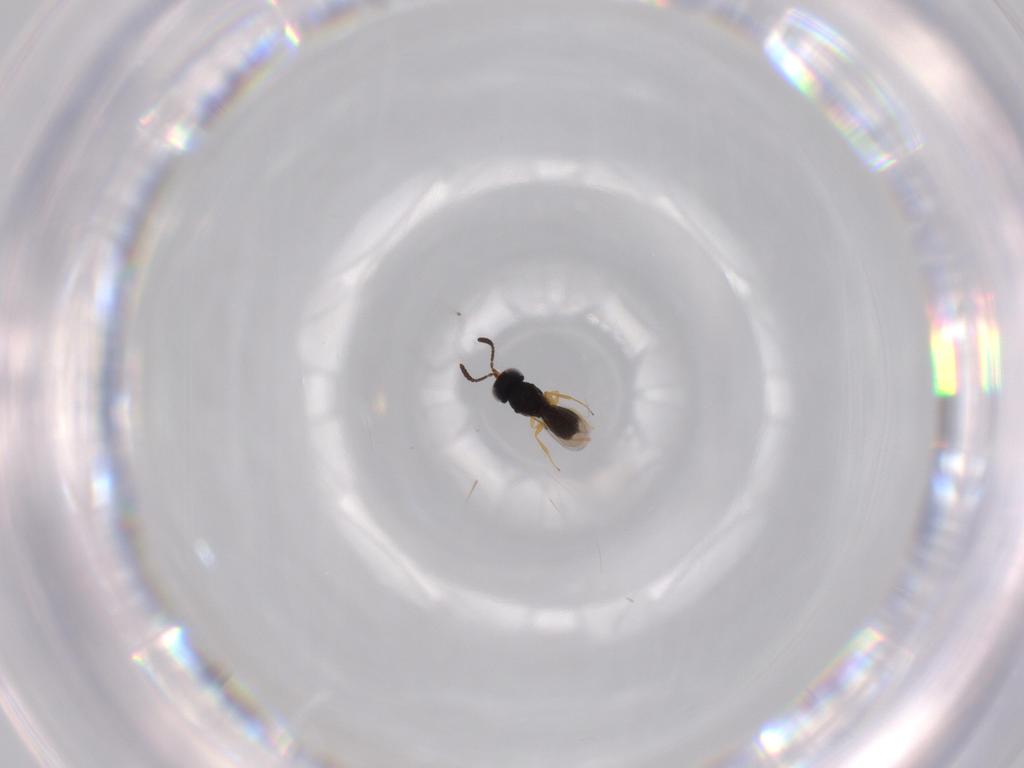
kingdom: Animalia
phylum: Arthropoda
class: Insecta
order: Hymenoptera
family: Scelionidae
